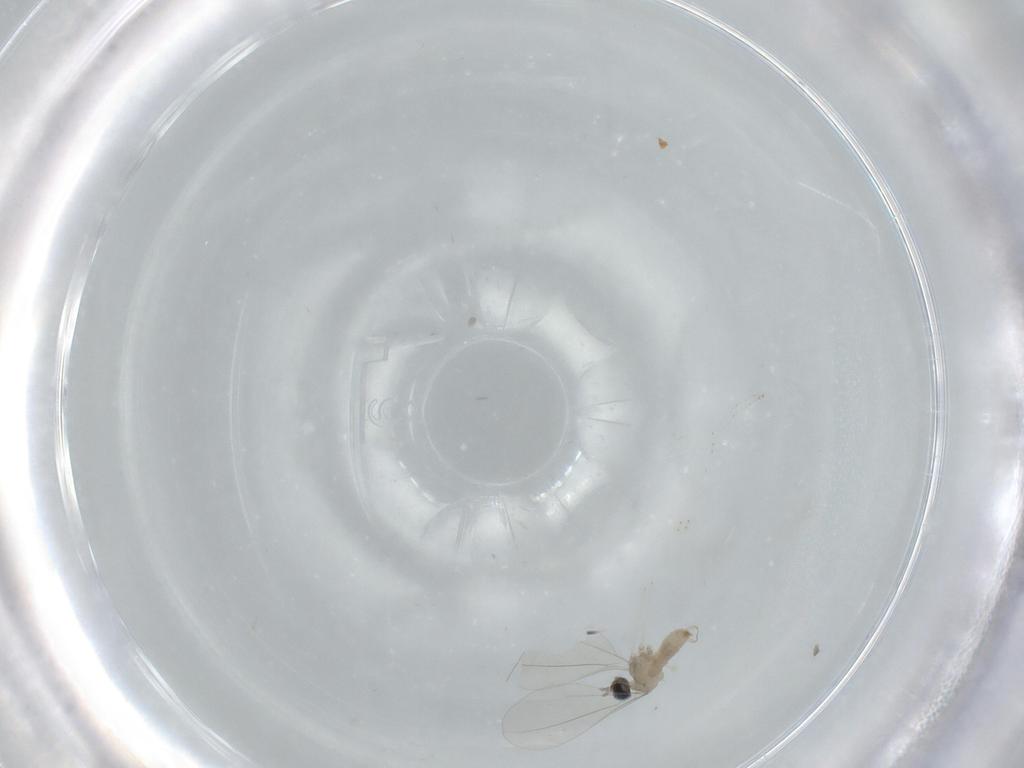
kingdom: Animalia
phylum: Arthropoda
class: Insecta
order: Diptera
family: Cecidomyiidae
